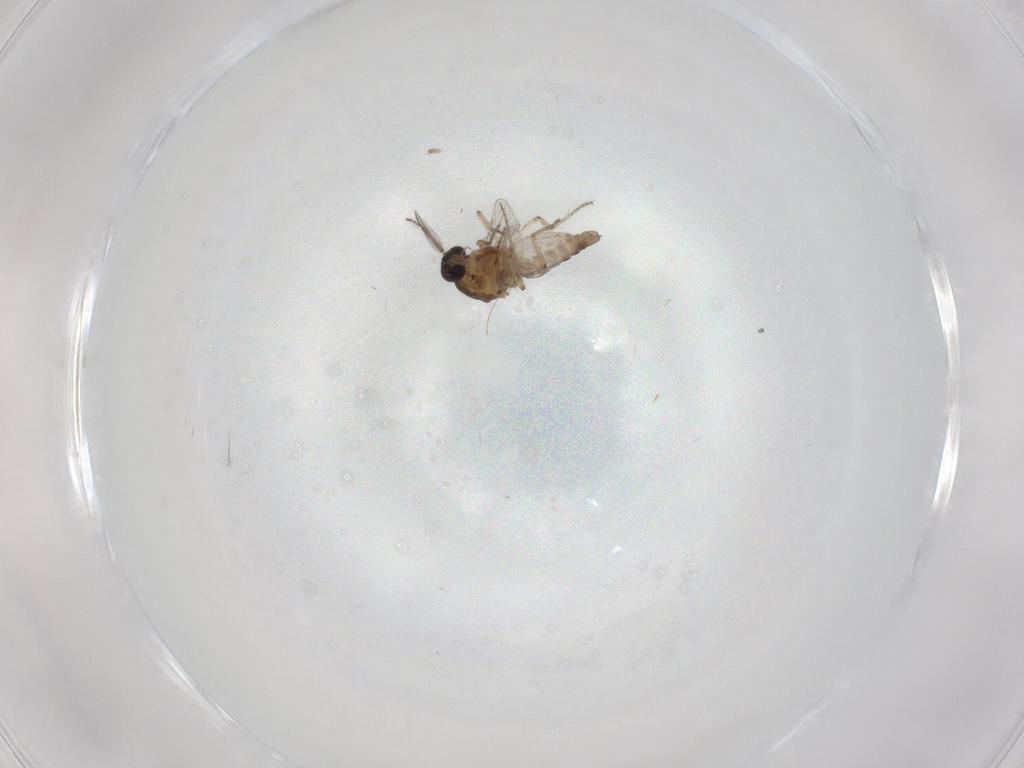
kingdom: Animalia
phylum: Arthropoda
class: Insecta
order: Diptera
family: Ceratopogonidae
